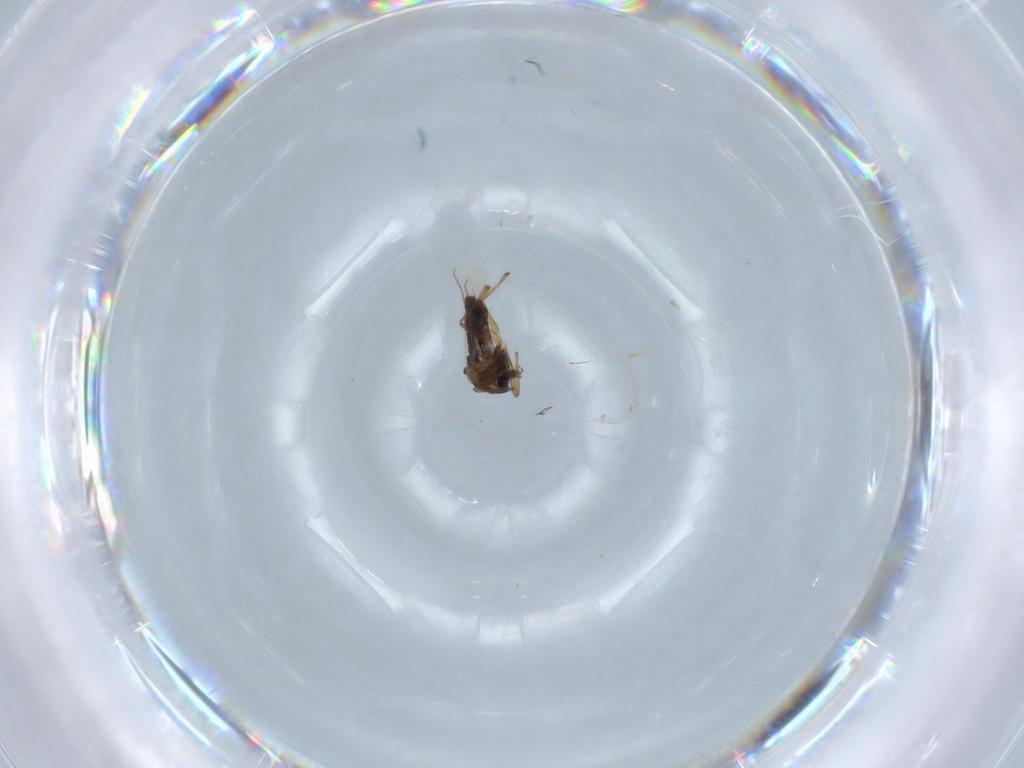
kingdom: Animalia
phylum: Arthropoda
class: Insecta
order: Diptera
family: Chironomidae
